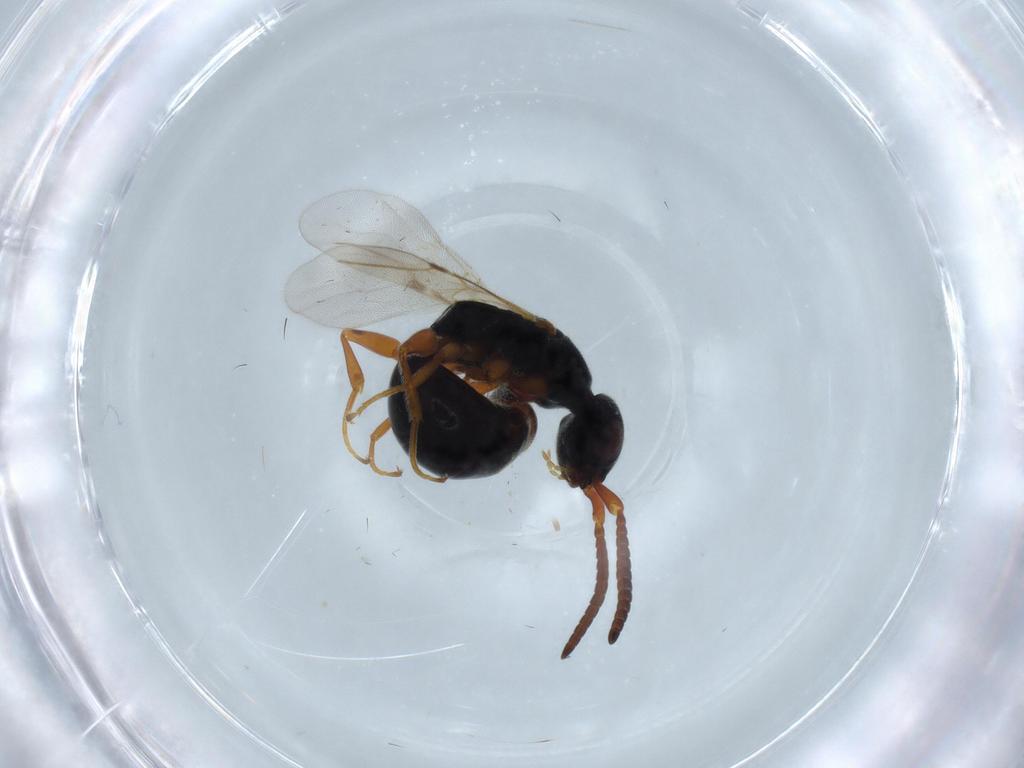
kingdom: Animalia
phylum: Arthropoda
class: Insecta
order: Hymenoptera
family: Bethylidae
